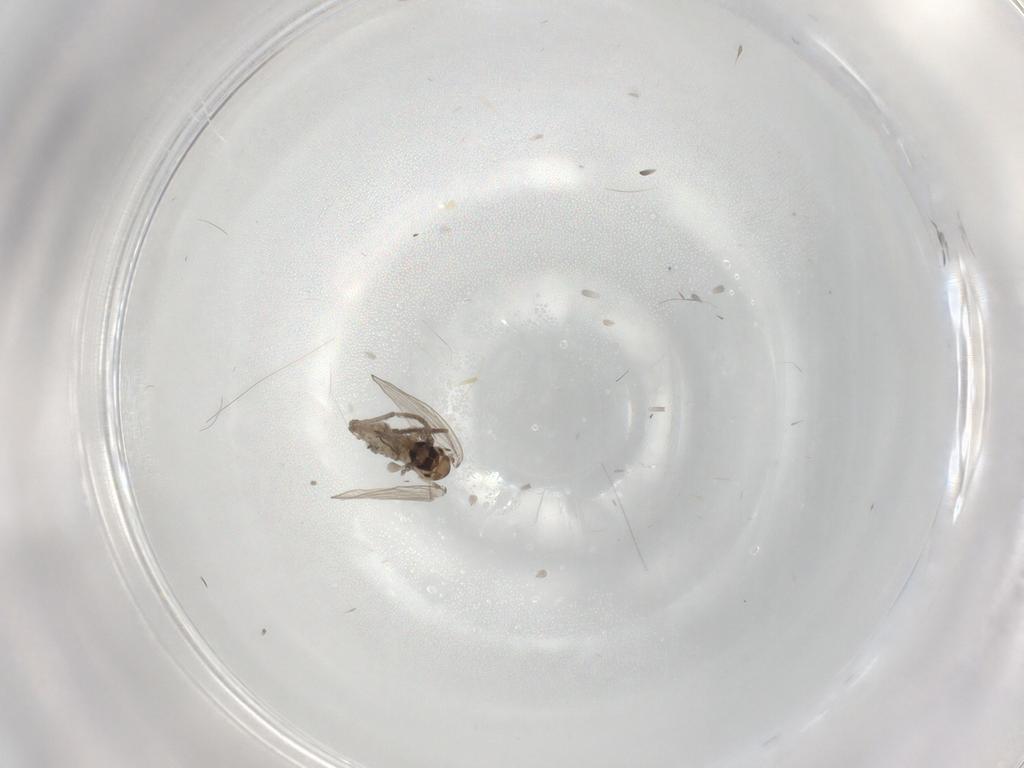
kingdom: Animalia
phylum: Arthropoda
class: Insecta
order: Diptera
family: Psychodidae
